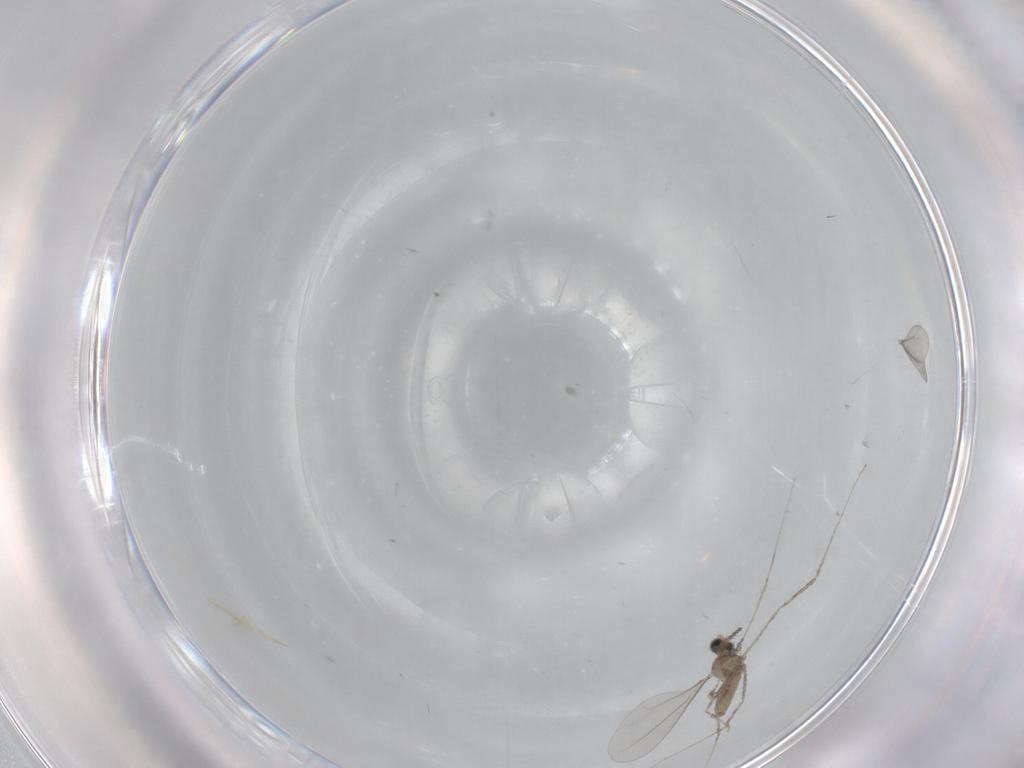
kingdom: Animalia
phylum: Arthropoda
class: Insecta
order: Diptera
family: Cecidomyiidae
